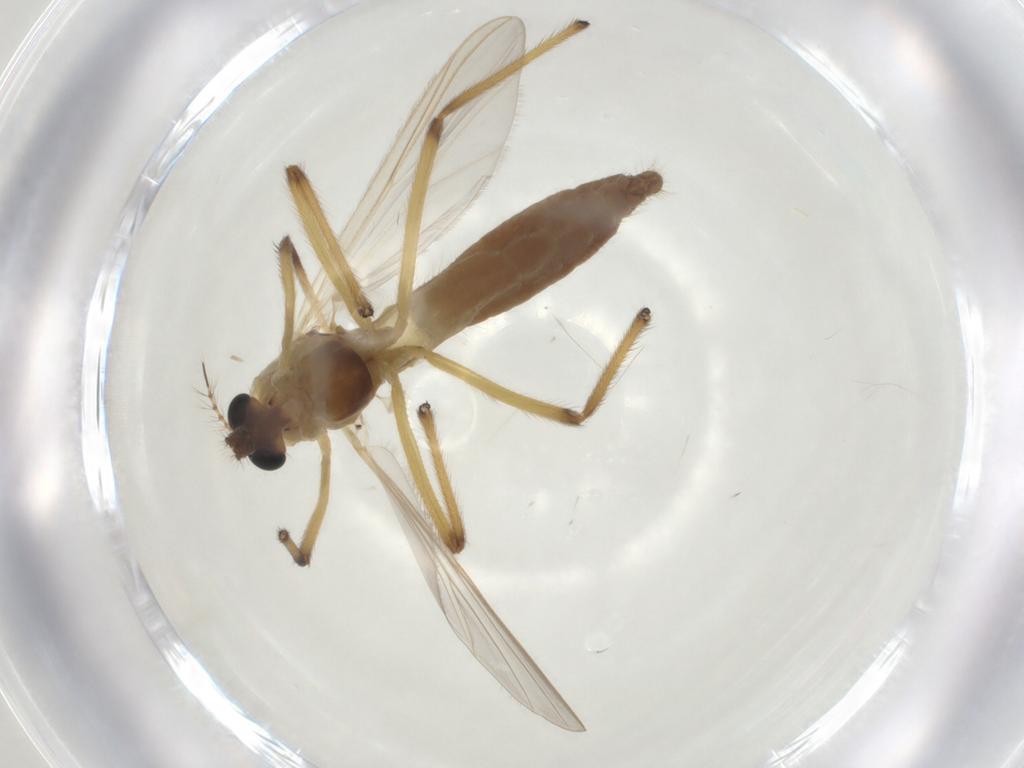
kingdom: Animalia
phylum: Arthropoda
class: Insecta
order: Diptera
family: Chironomidae
